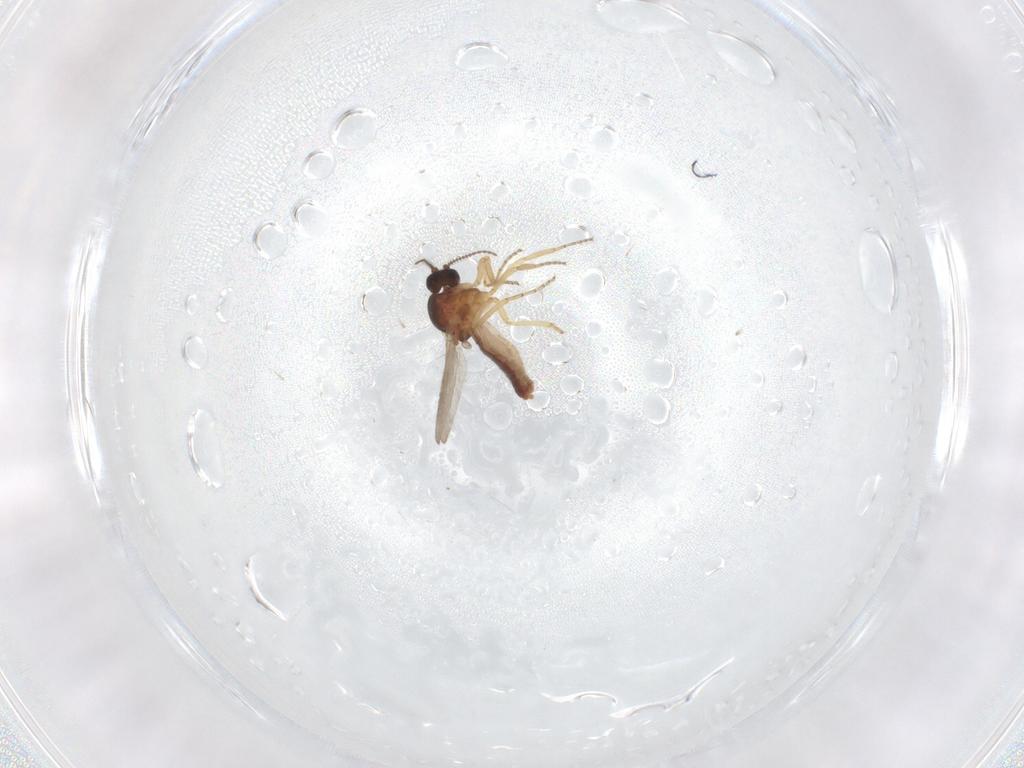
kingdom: Animalia
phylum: Arthropoda
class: Insecta
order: Diptera
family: Ceratopogonidae
